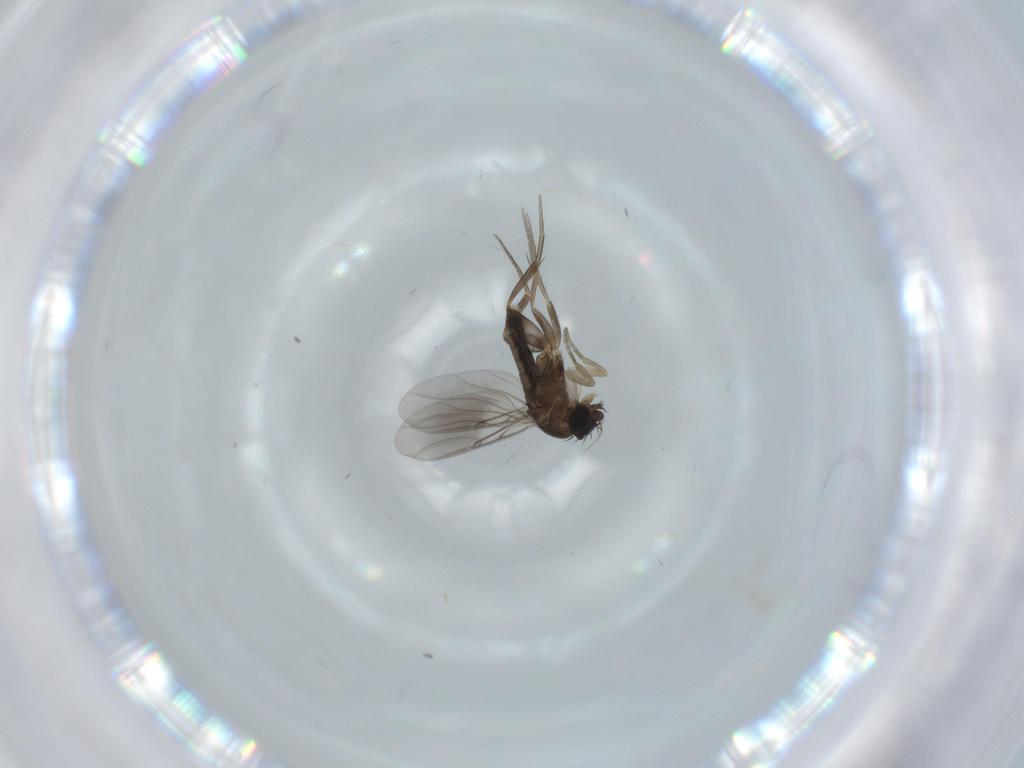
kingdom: Animalia
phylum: Arthropoda
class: Insecta
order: Diptera
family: Phoridae
